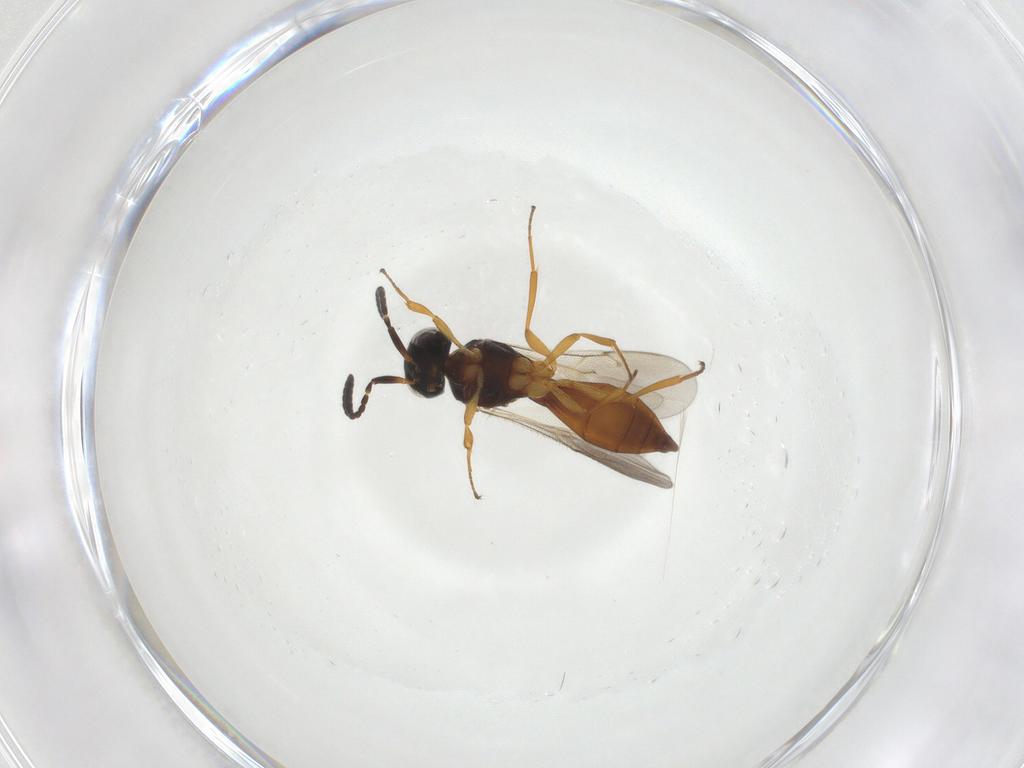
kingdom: Animalia
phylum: Arthropoda
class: Insecta
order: Hymenoptera
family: Scelionidae
